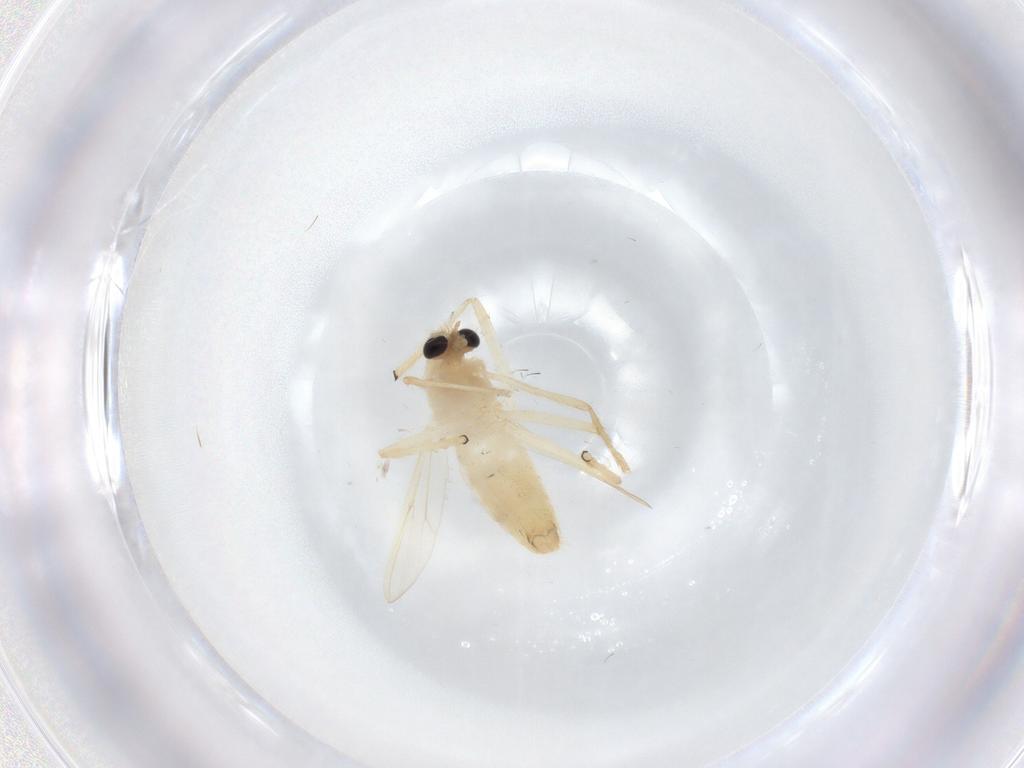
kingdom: Animalia
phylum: Arthropoda
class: Insecta
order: Diptera
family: Chironomidae
